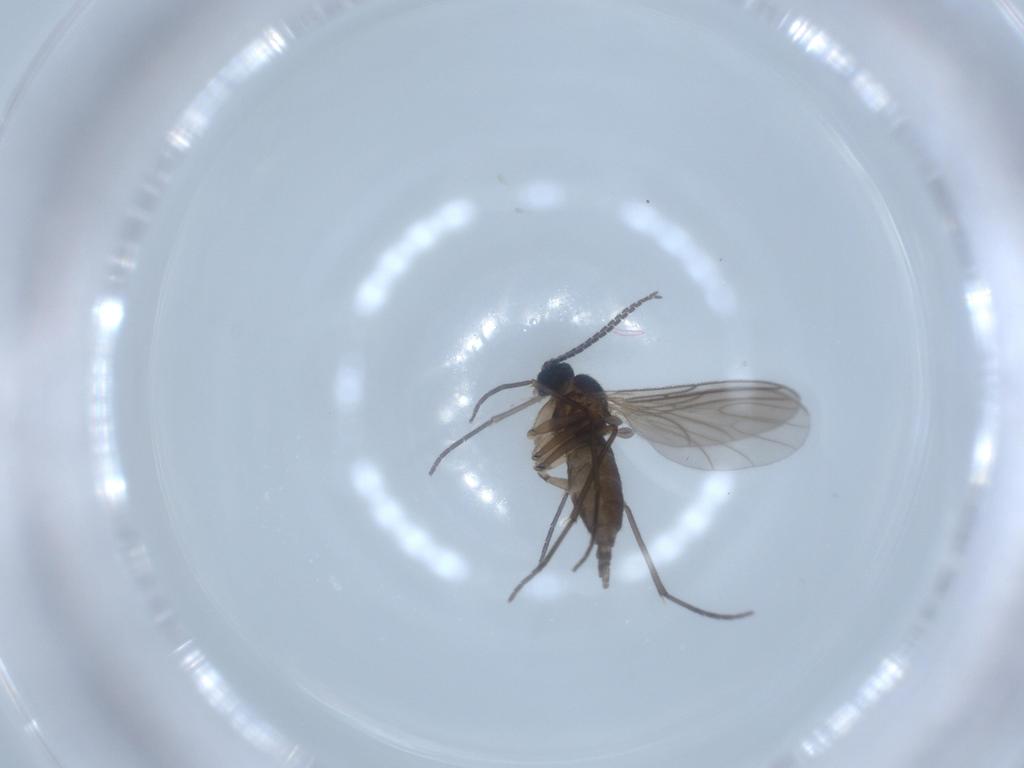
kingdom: Animalia
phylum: Arthropoda
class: Insecta
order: Diptera
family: Sciaridae
